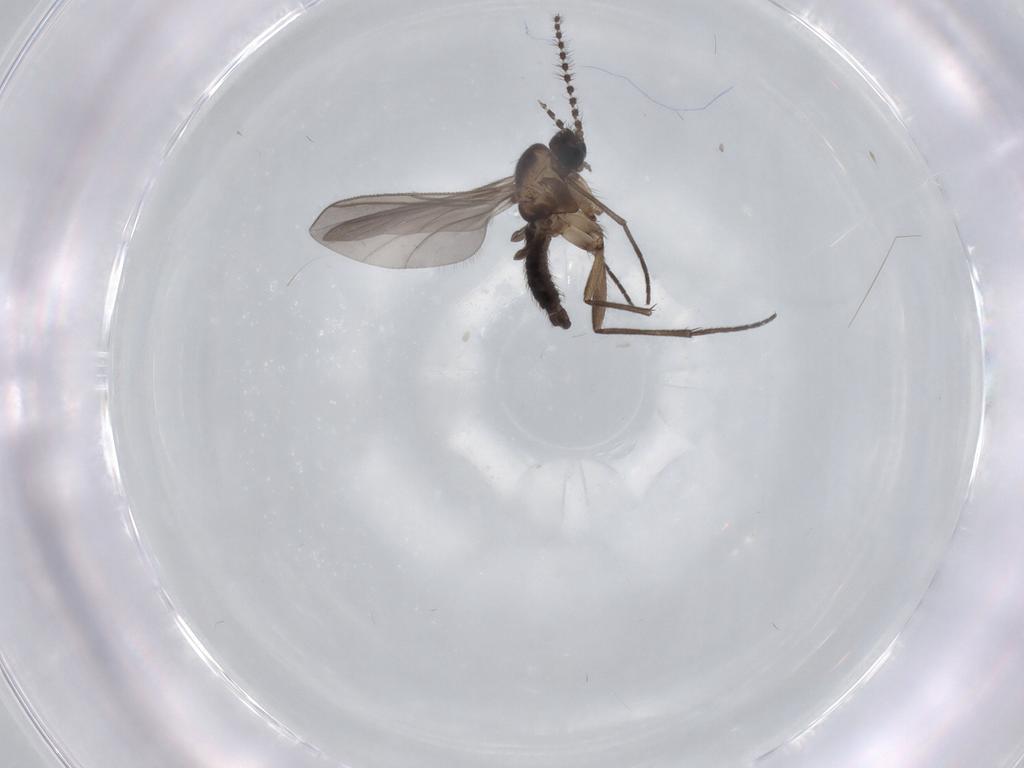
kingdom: Animalia
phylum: Arthropoda
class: Insecta
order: Diptera
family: Sciaridae
